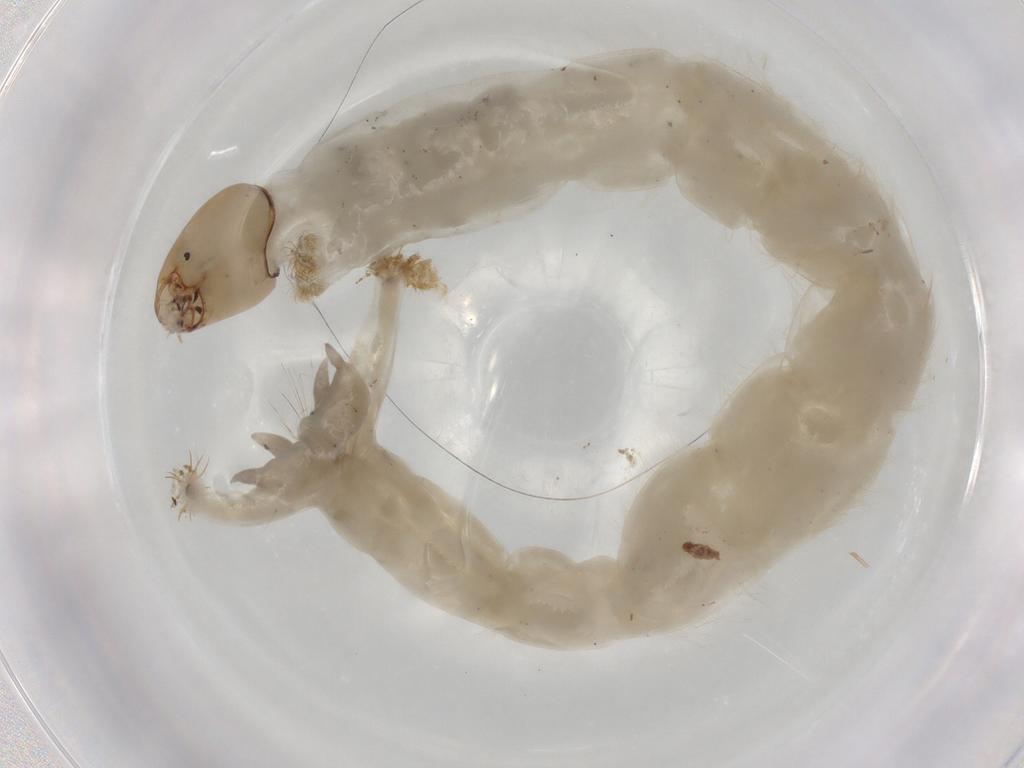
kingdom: Animalia
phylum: Arthropoda
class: Insecta
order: Diptera
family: Chironomidae
